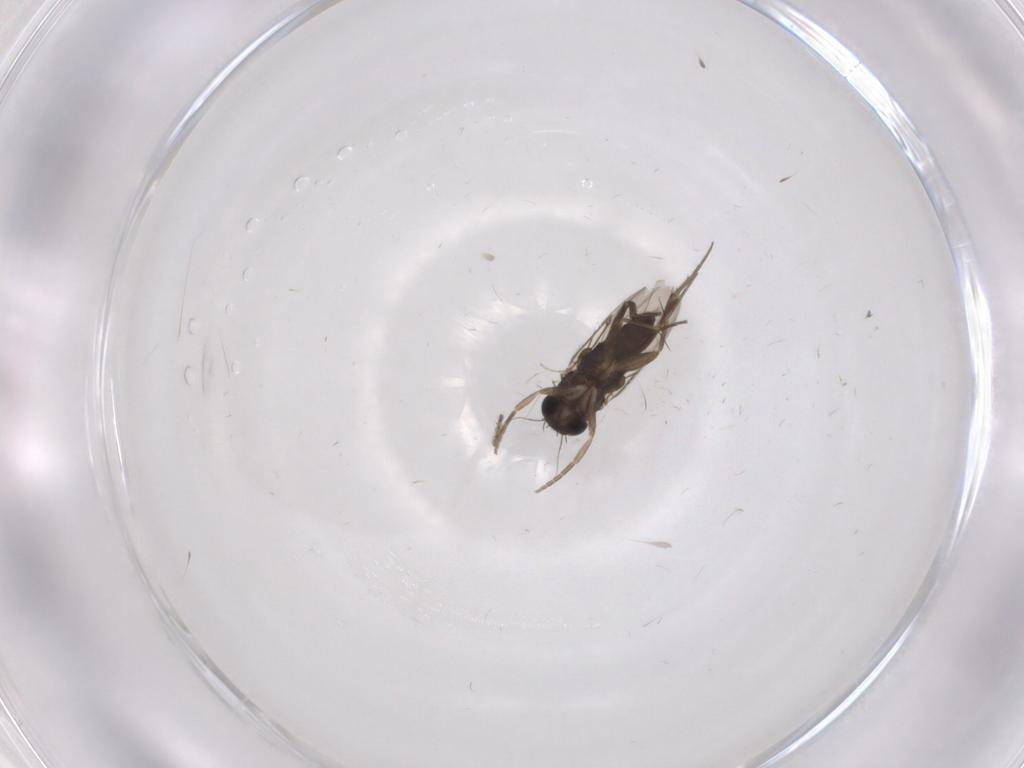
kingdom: Animalia
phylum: Arthropoda
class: Insecta
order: Diptera
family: Phoridae
